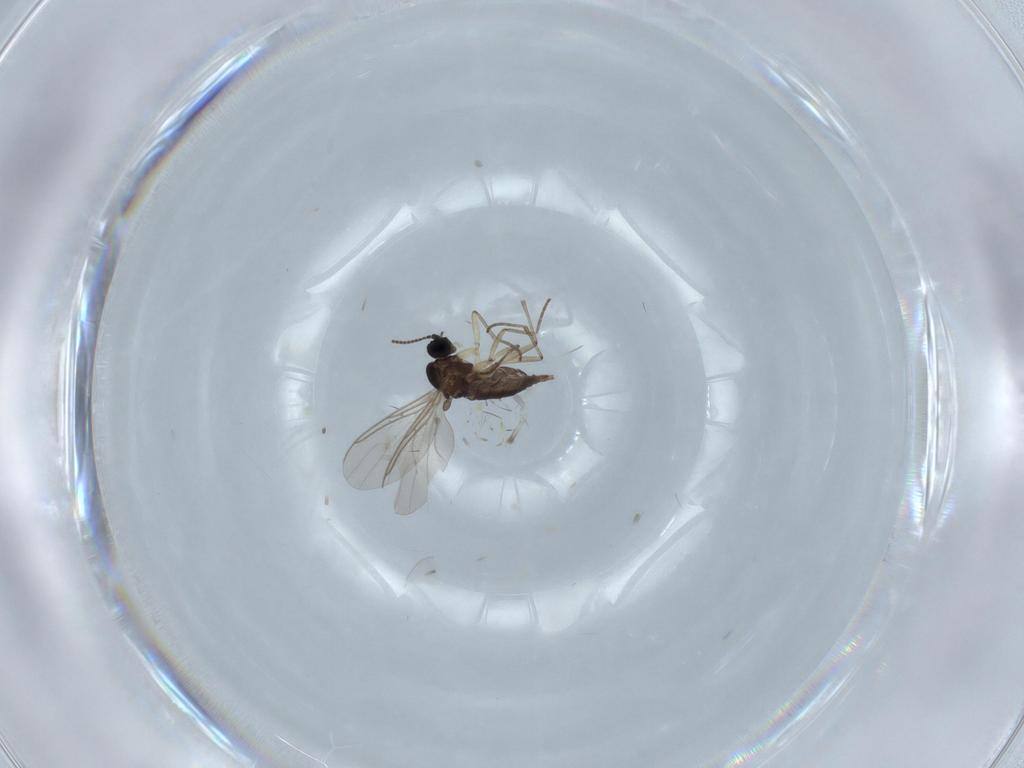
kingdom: Animalia
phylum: Arthropoda
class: Insecta
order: Diptera
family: Sciaridae
